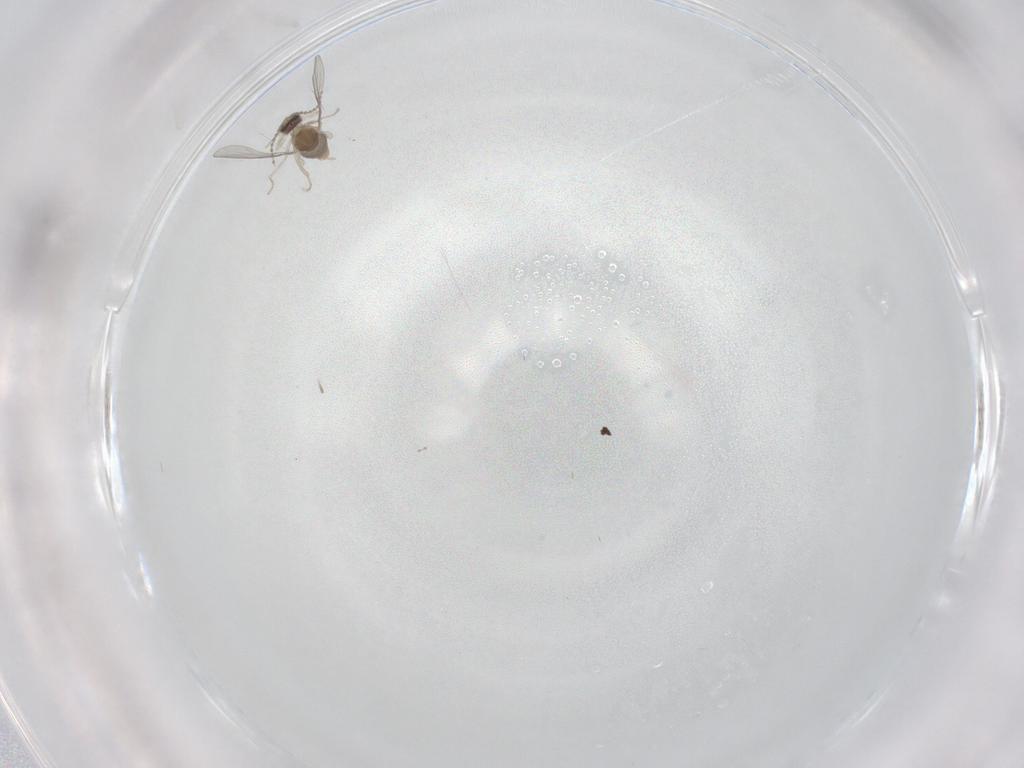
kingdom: Animalia
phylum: Arthropoda
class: Insecta
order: Diptera
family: Cecidomyiidae
